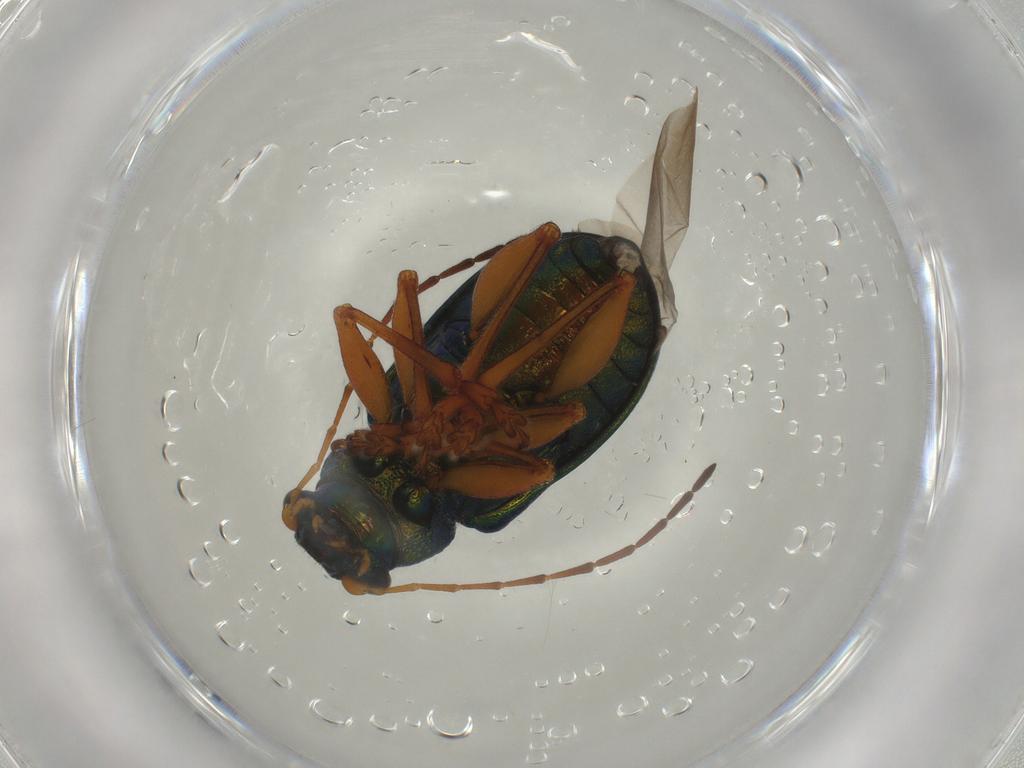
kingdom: Animalia
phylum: Arthropoda
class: Insecta
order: Coleoptera
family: Chrysomelidae
